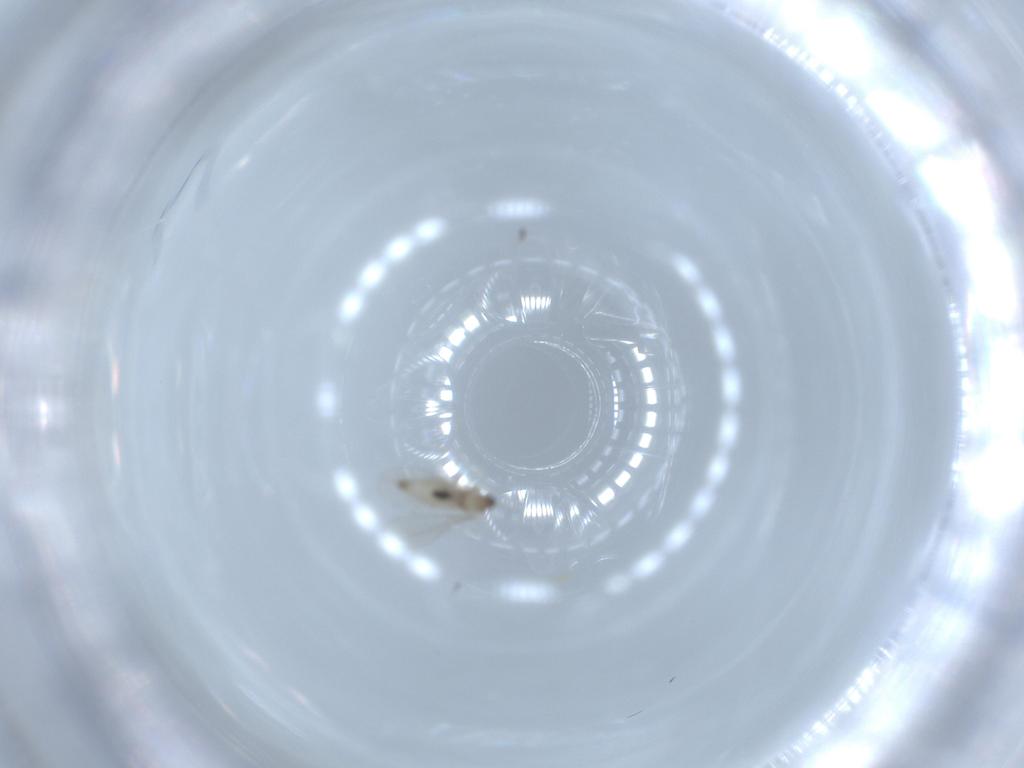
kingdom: Animalia
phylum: Arthropoda
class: Insecta
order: Diptera
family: Cecidomyiidae
